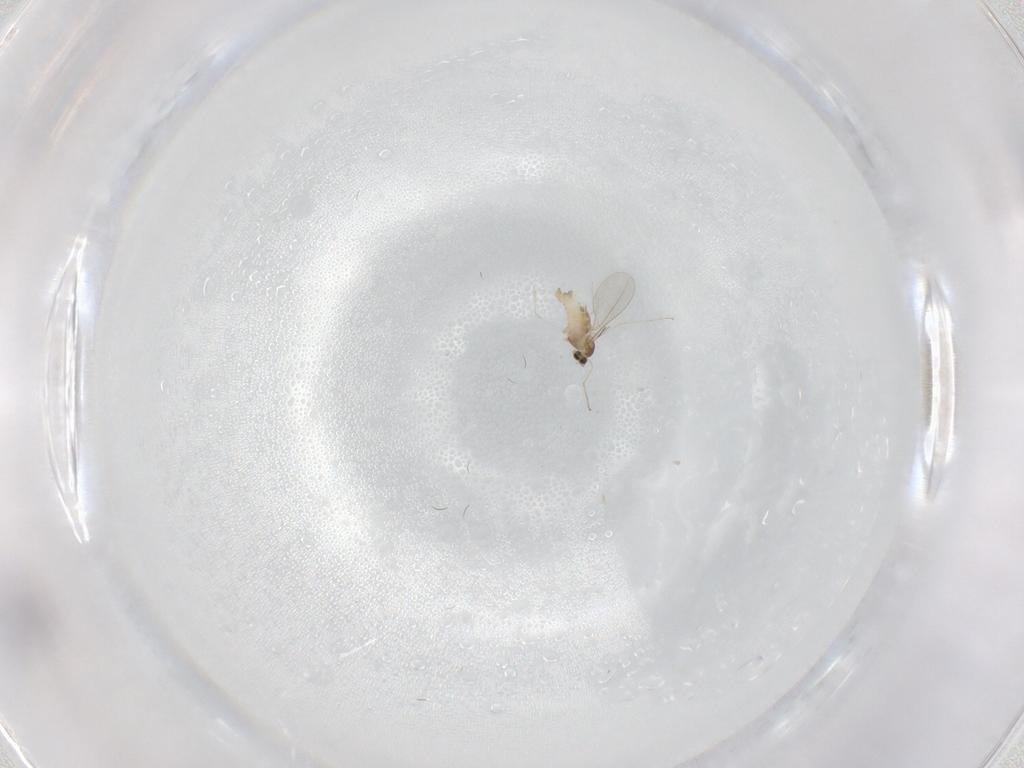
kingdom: Animalia
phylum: Arthropoda
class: Insecta
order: Diptera
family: Cecidomyiidae
